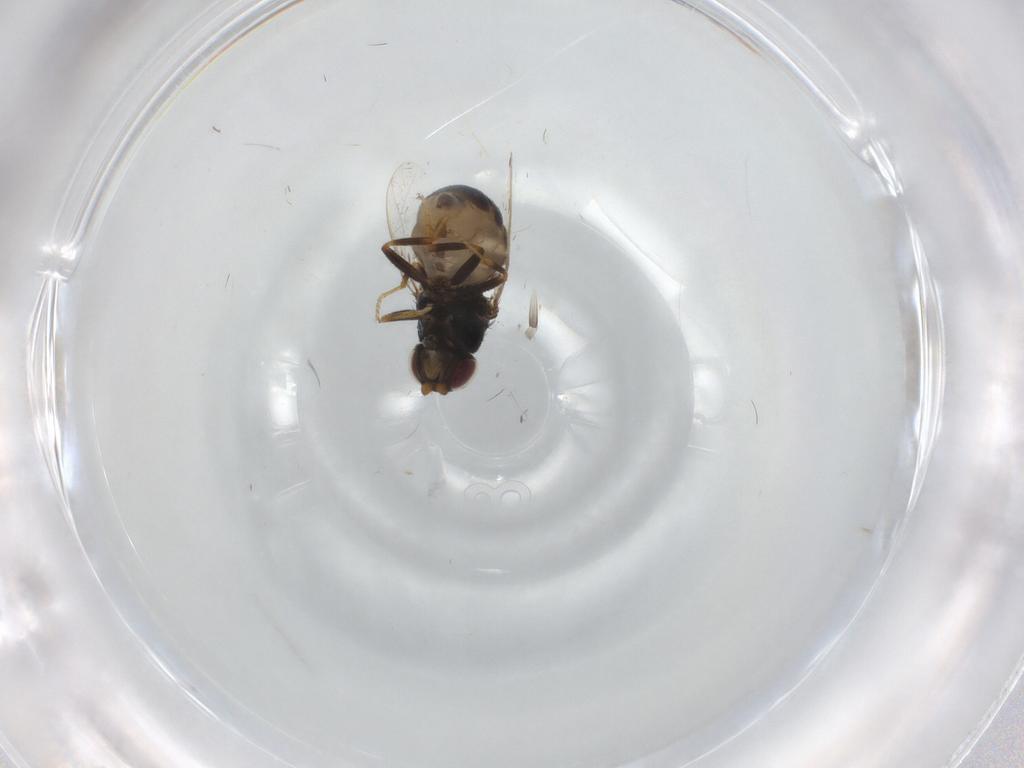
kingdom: Animalia
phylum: Arthropoda
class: Insecta
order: Diptera
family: Chloropidae
